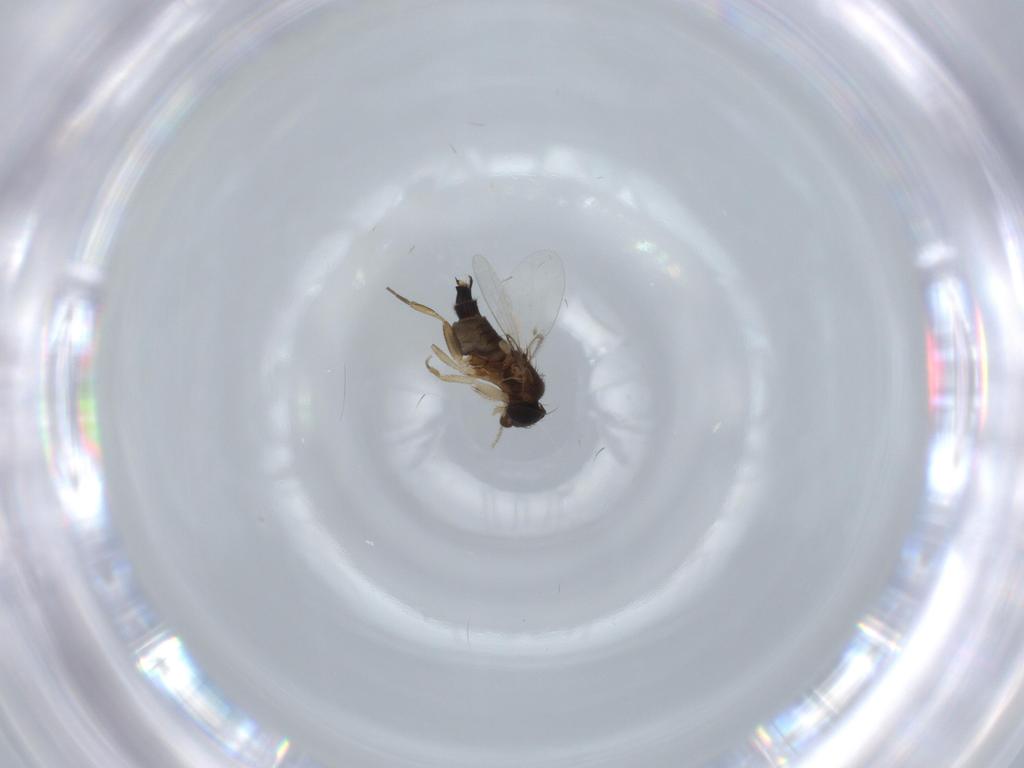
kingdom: Animalia
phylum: Arthropoda
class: Insecta
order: Diptera
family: Phoridae
